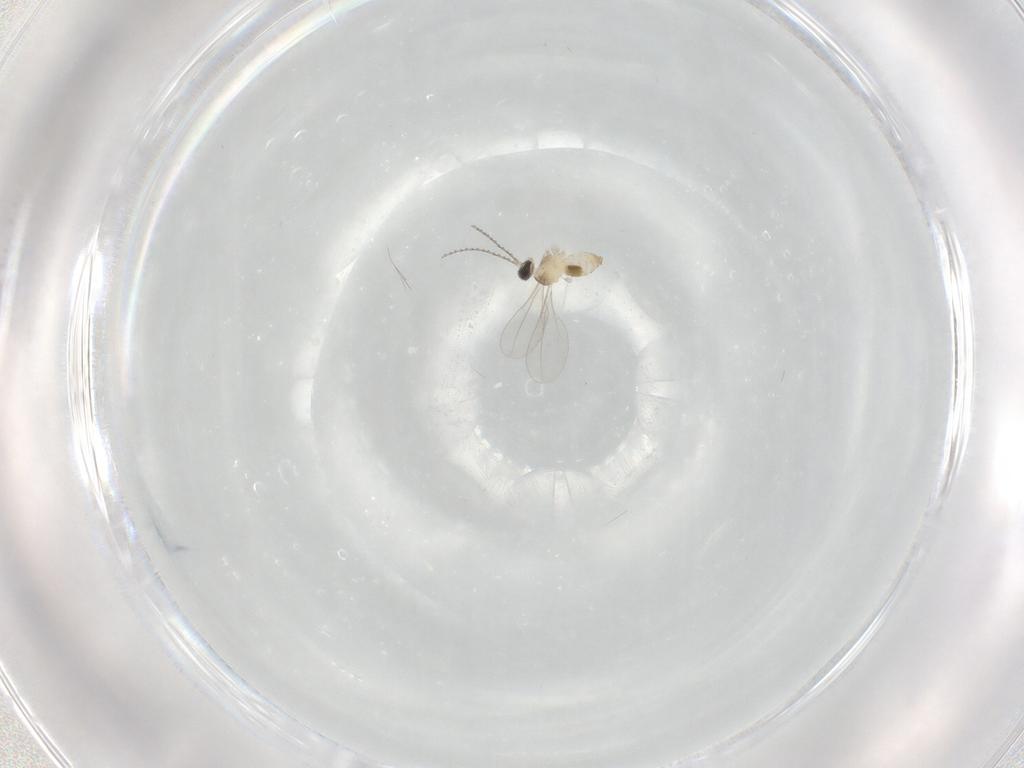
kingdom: Animalia
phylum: Arthropoda
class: Insecta
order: Diptera
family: Cecidomyiidae
